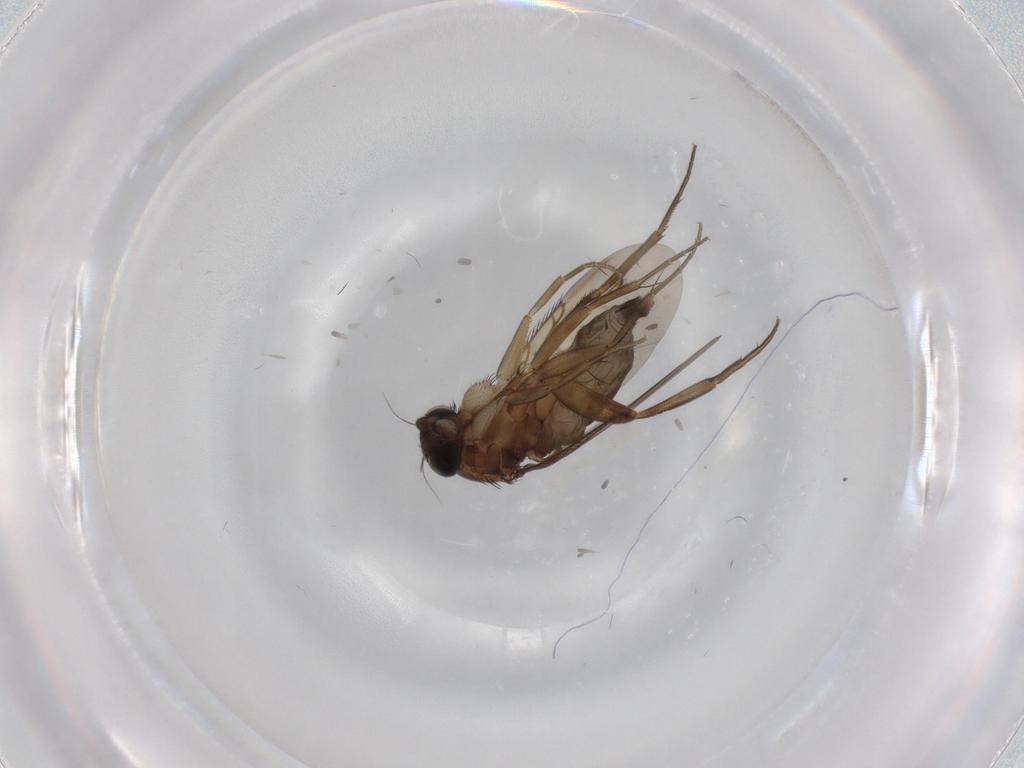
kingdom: Animalia
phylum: Arthropoda
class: Insecta
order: Diptera
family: Phoridae
